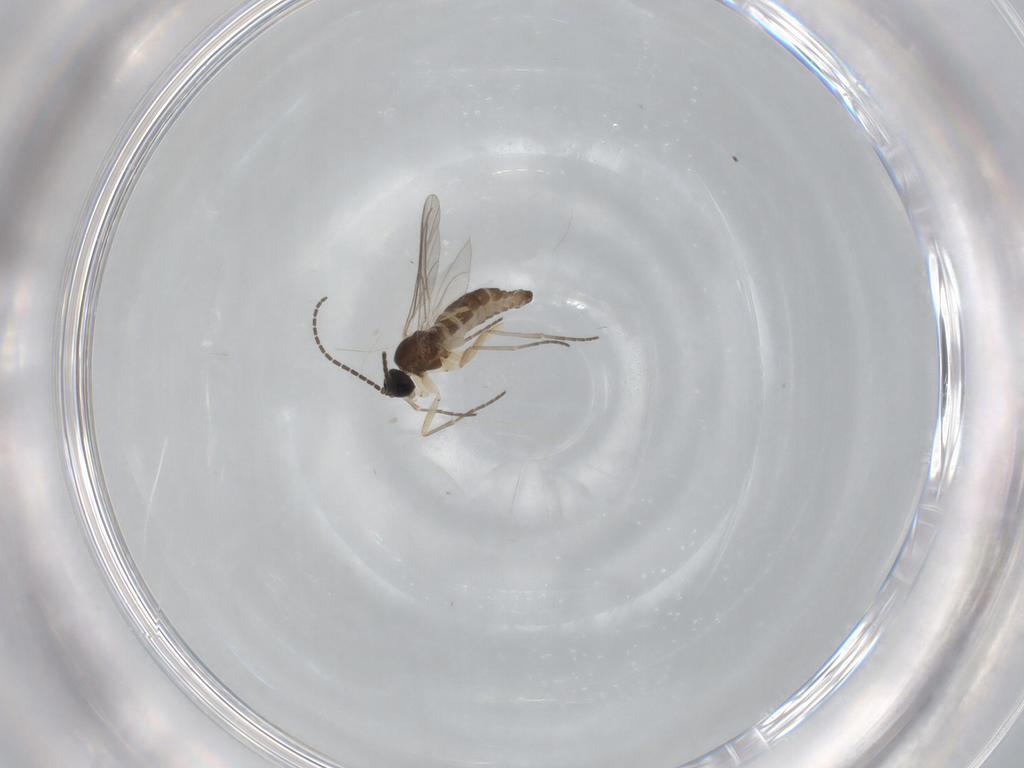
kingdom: Animalia
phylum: Arthropoda
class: Insecta
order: Diptera
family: Sciaridae
